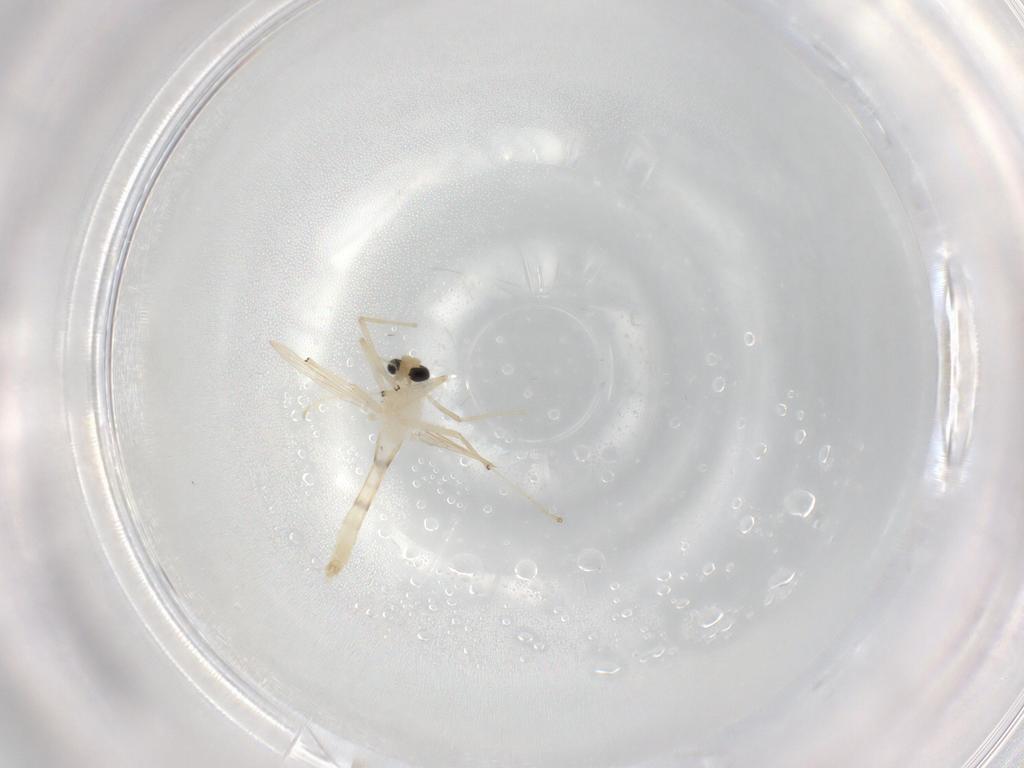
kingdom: Animalia
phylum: Arthropoda
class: Insecta
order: Diptera
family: Chironomidae
